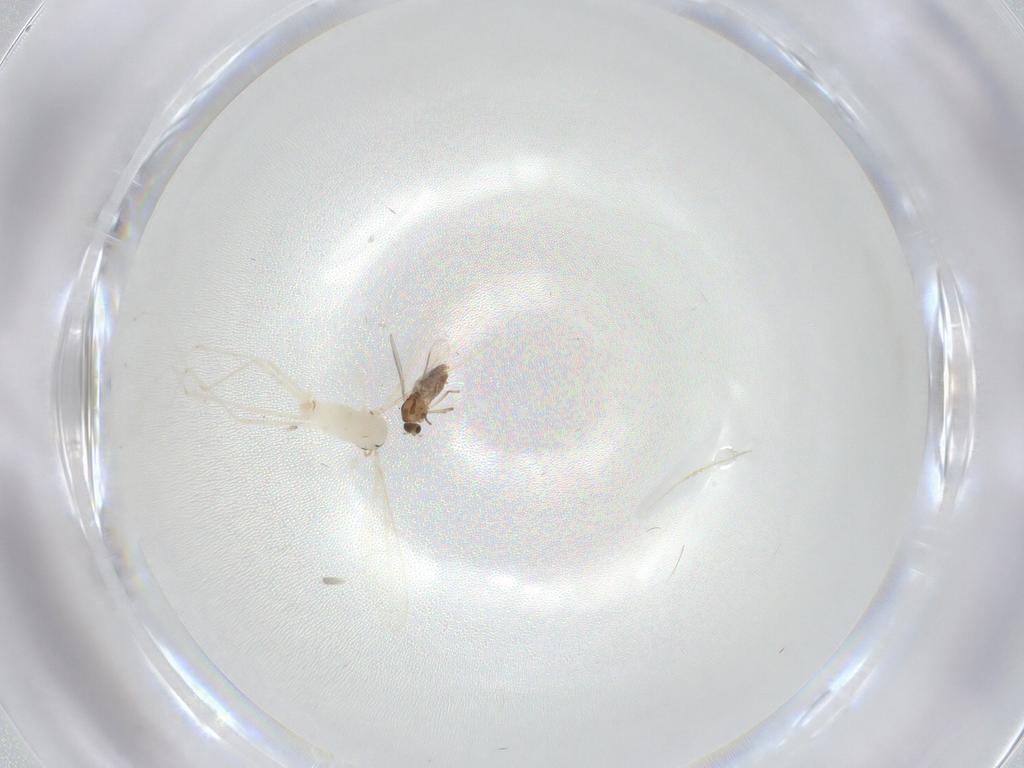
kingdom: Animalia
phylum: Arthropoda
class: Insecta
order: Diptera
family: Cecidomyiidae
